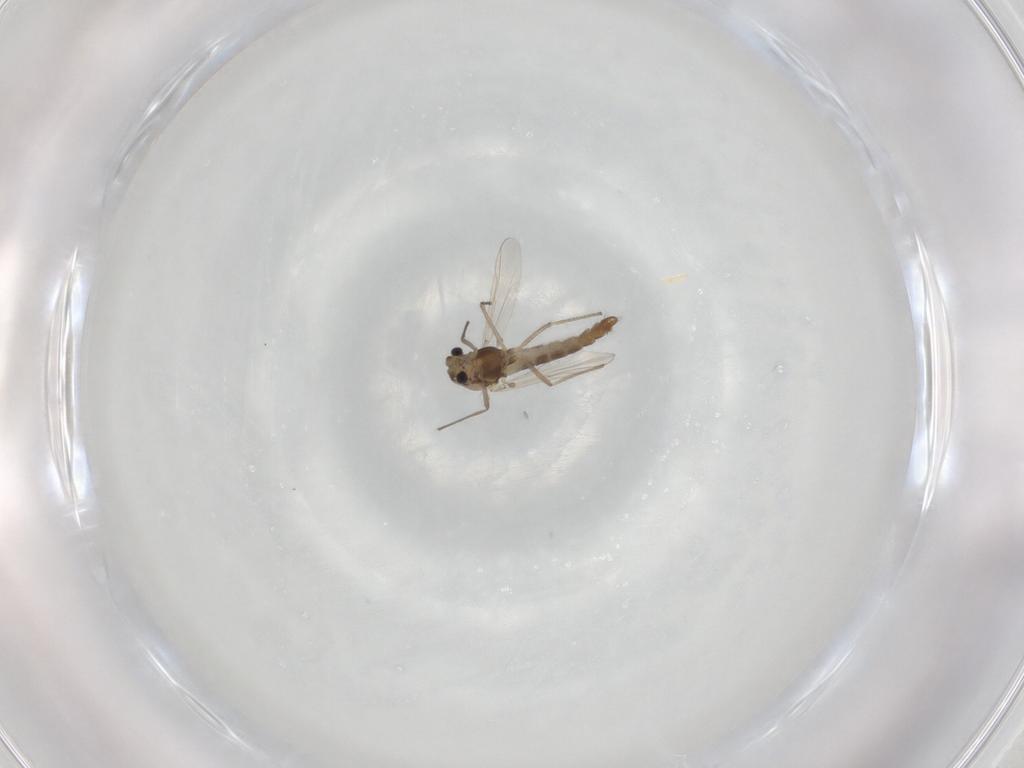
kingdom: Animalia
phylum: Arthropoda
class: Insecta
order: Diptera
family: Chironomidae
